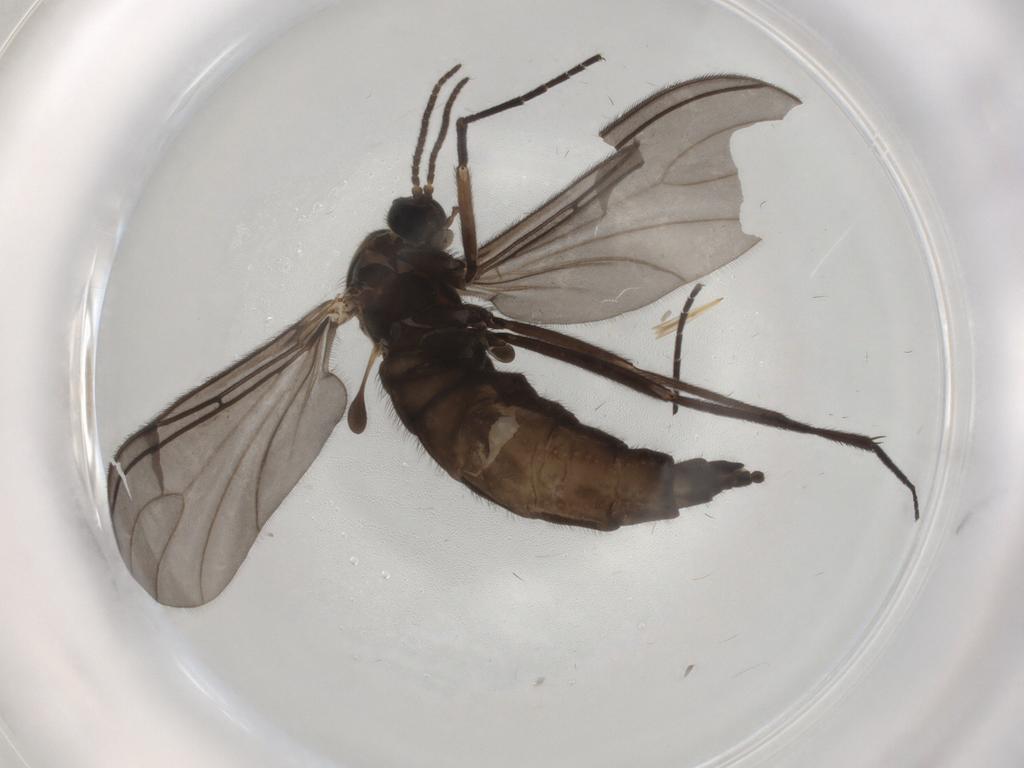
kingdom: Animalia
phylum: Arthropoda
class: Insecta
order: Diptera
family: Sciaridae
